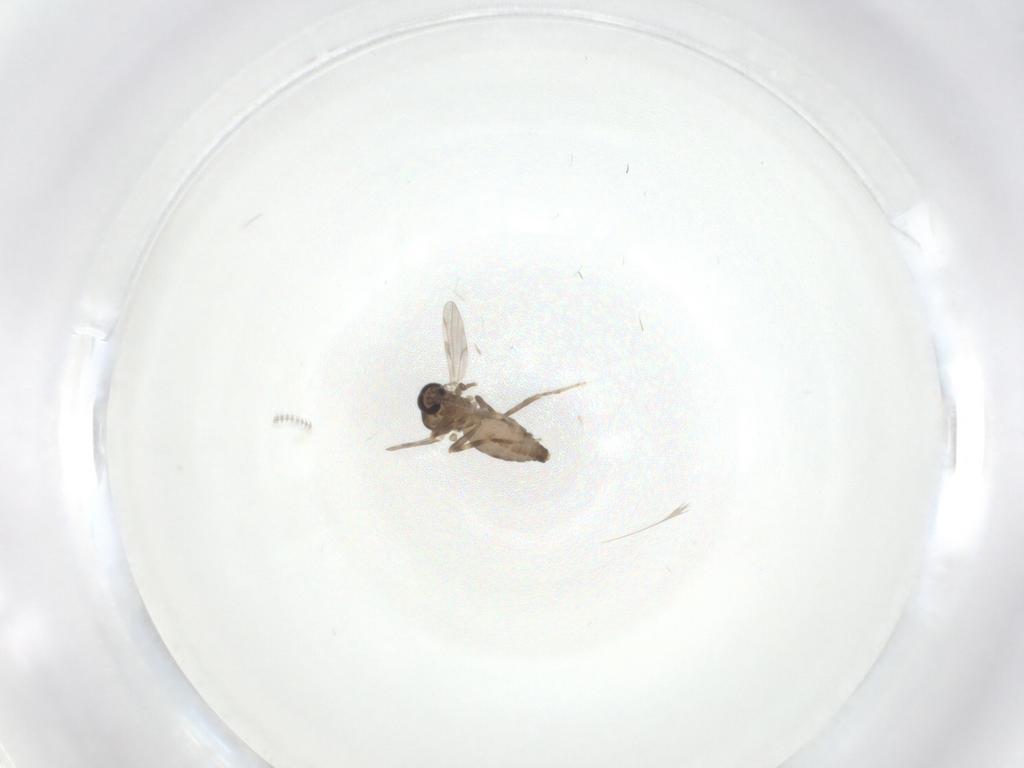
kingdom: Animalia
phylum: Arthropoda
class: Insecta
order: Diptera
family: Ceratopogonidae
